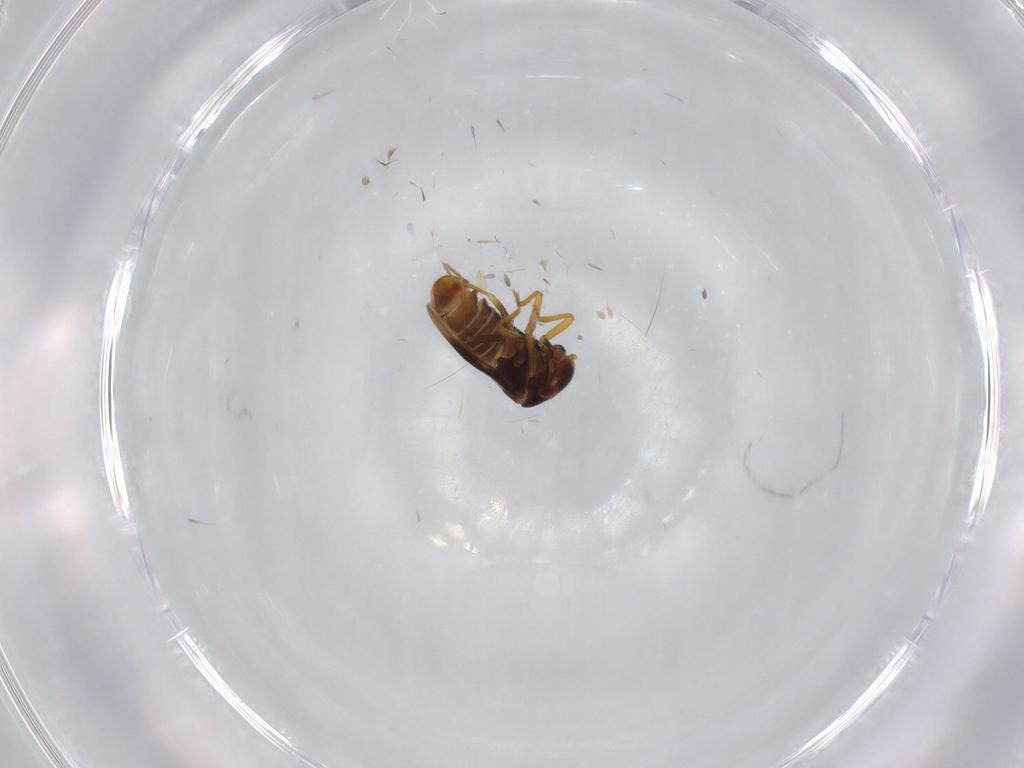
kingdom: Animalia
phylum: Arthropoda
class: Insecta
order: Hemiptera
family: Schizopteridae
